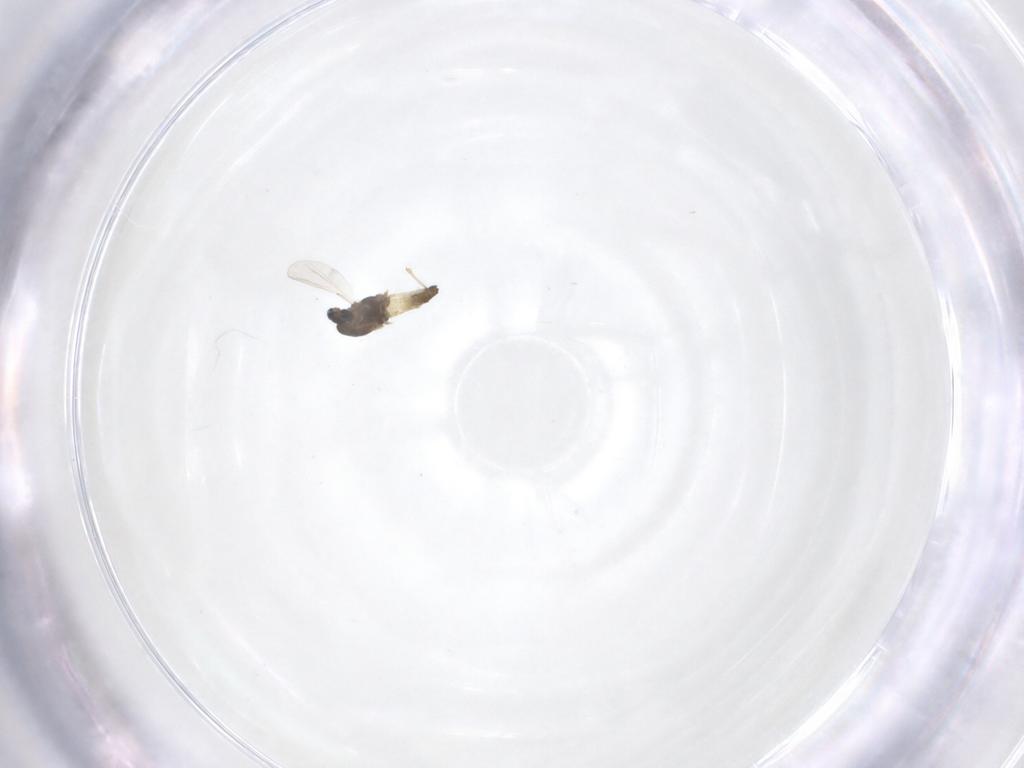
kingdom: Animalia
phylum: Arthropoda
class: Insecta
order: Diptera
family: Chironomidae
